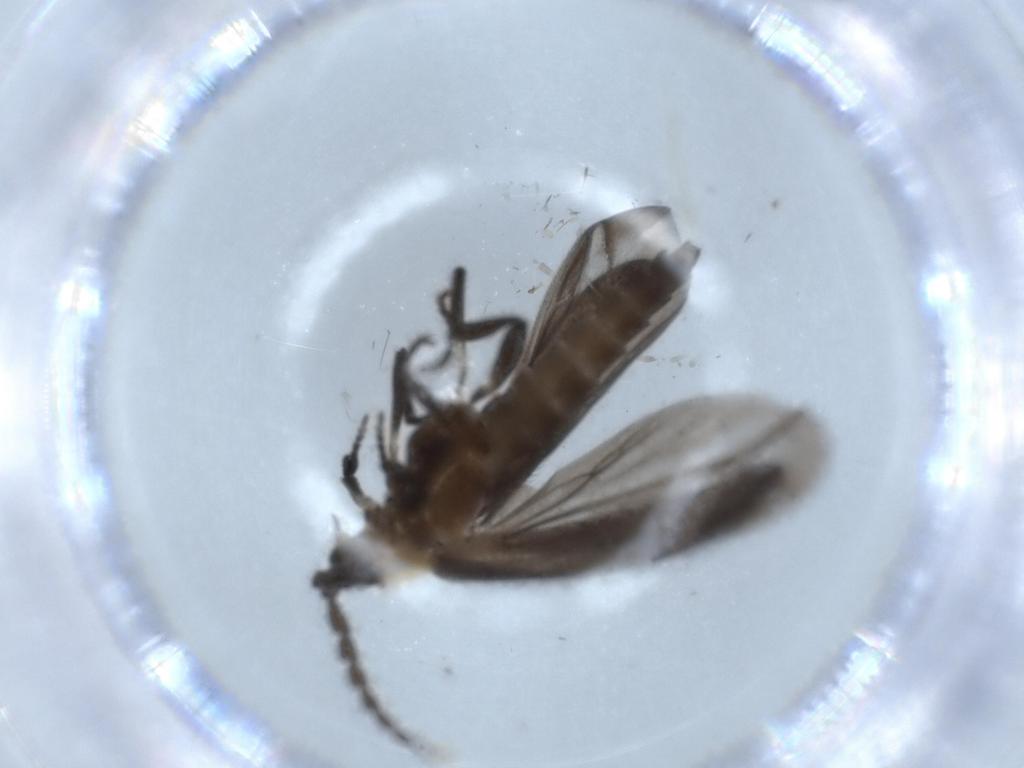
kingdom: Animalia
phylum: Arthropoda
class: Insecta
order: Coleoptera
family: Lycidae
